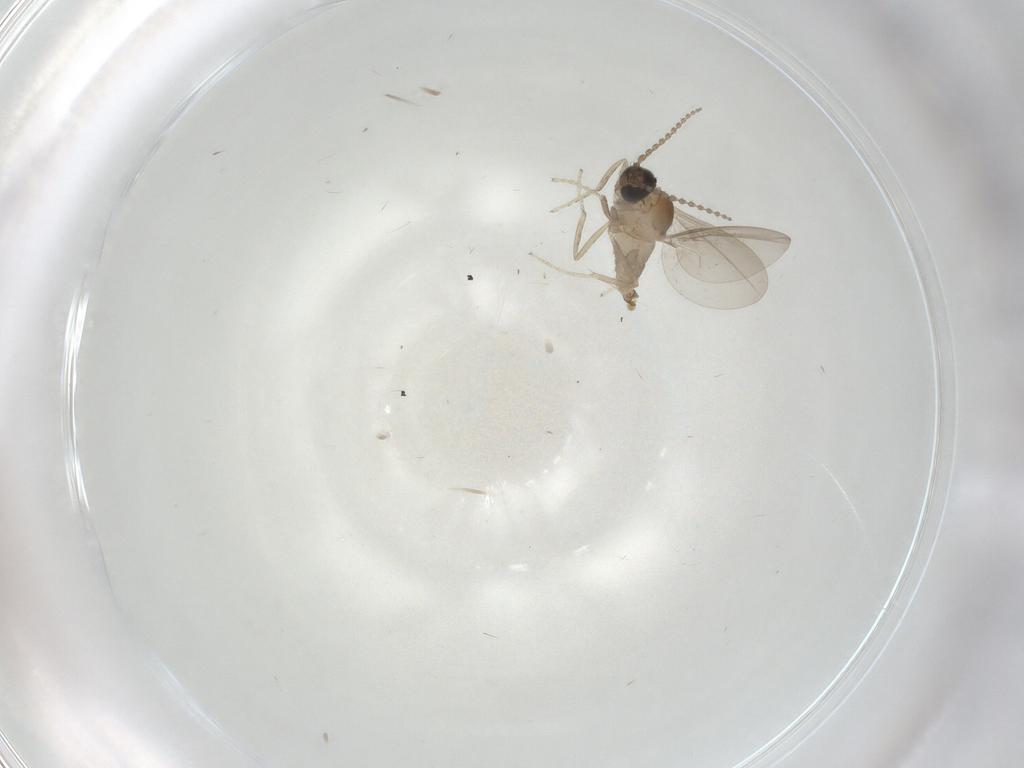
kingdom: Animalia
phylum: Arthropoda
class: Insecta
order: Diptera
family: Cecidomyiidae
